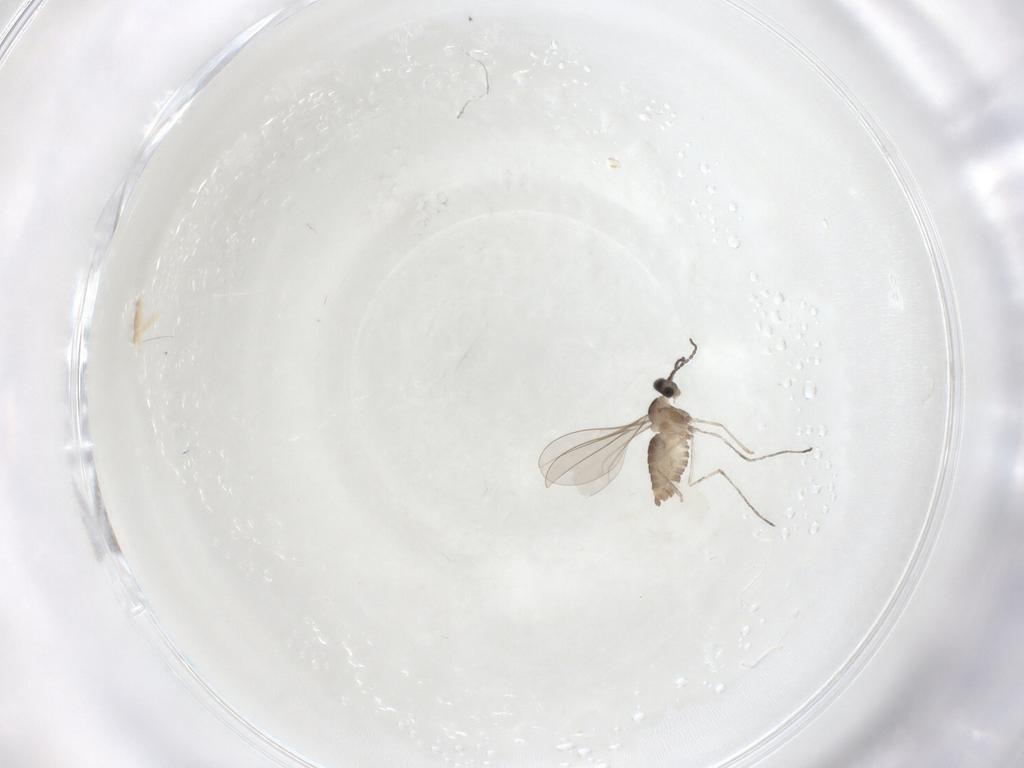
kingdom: Animalia
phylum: Arthropoda
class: Insecta
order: Diptera
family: Cecidomyiidae
